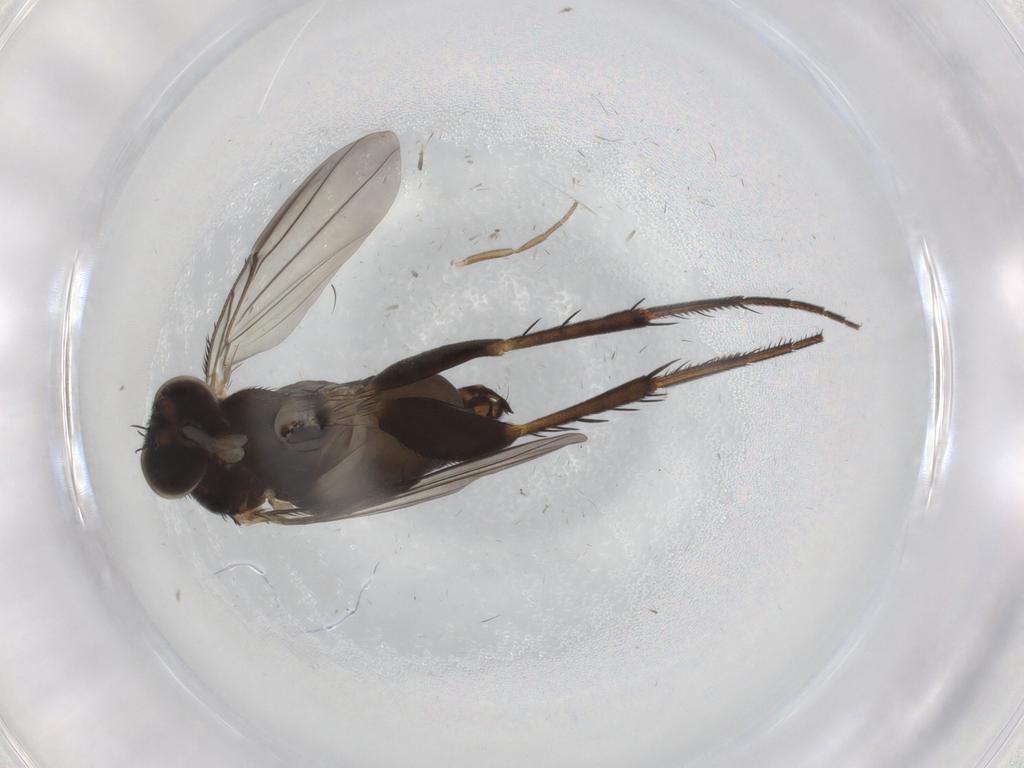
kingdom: Animalia
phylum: Arthropoda
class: Insecta
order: Diptera
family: Phoridae
